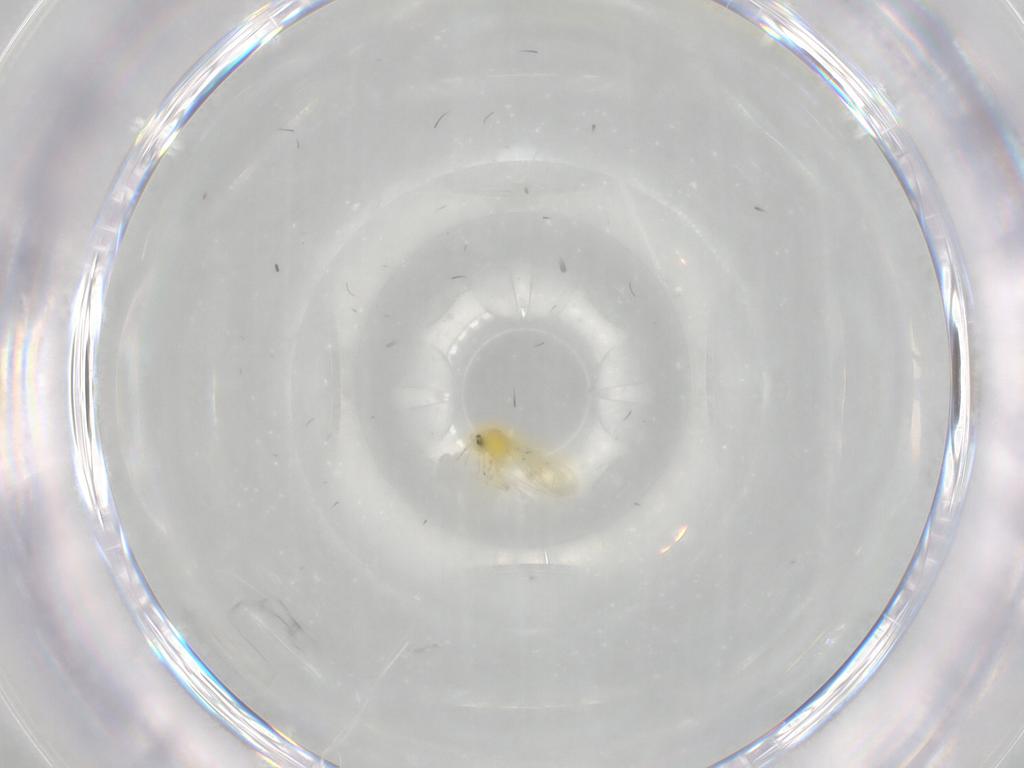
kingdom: Animalia
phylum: Arthropoda
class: Insecta
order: Hemiptera
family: Aleyrodidae
